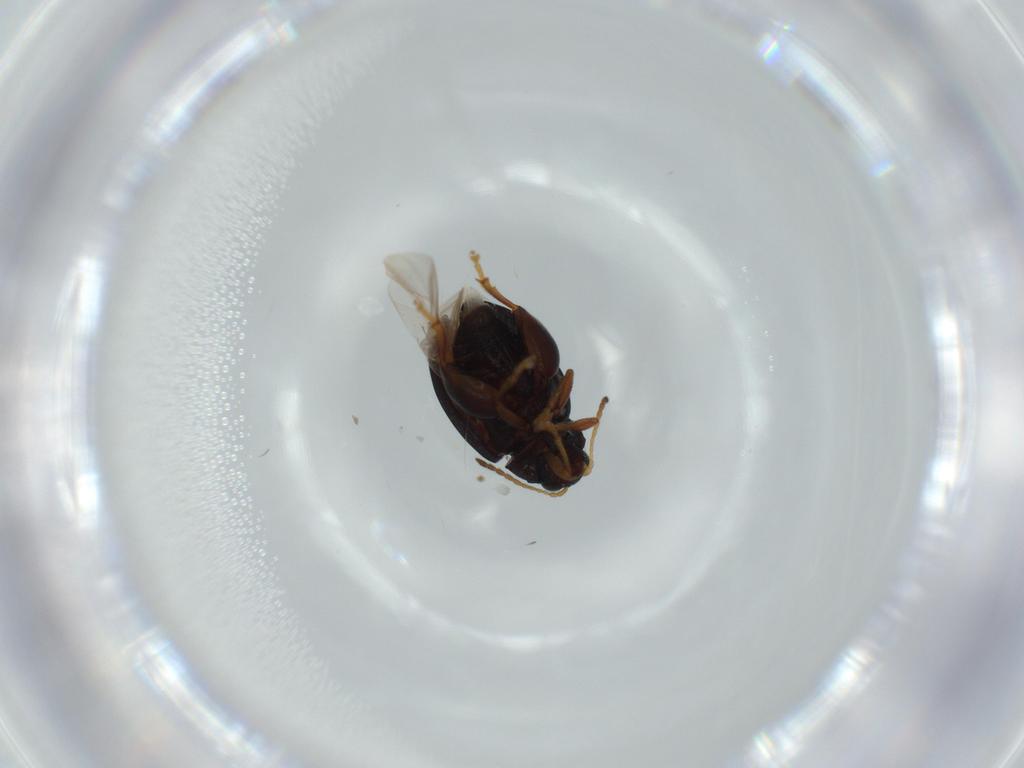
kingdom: Animalia
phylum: Arthropoda
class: Insecta
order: Coleoptera
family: Chrysomelidae
